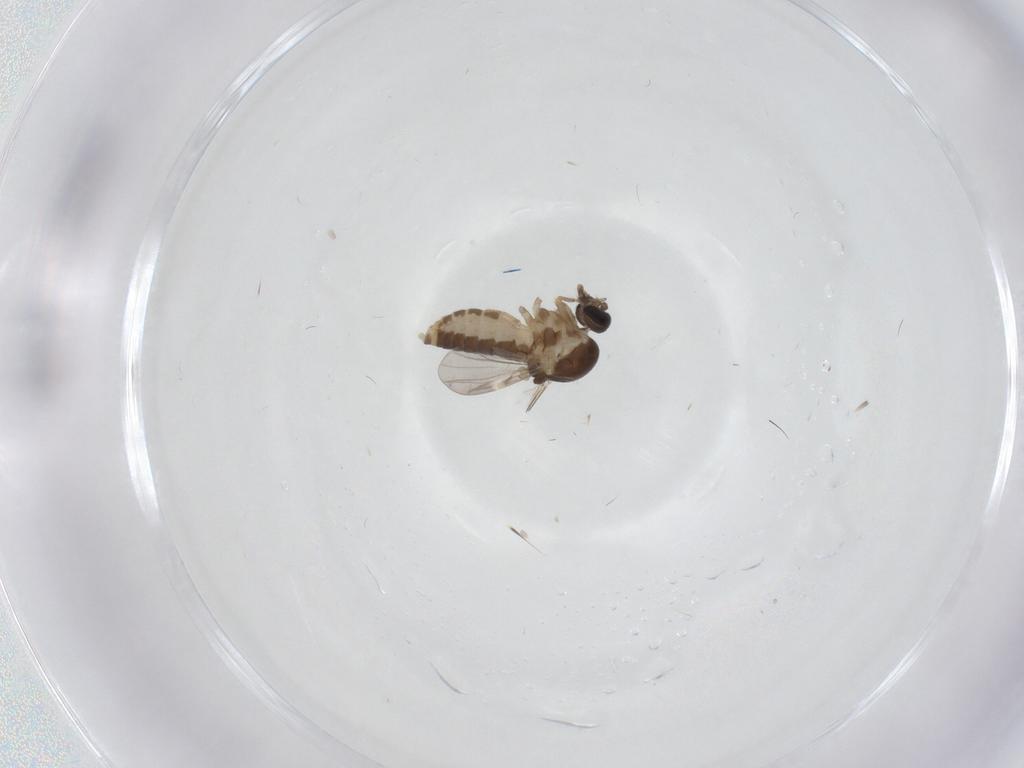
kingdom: Animalia
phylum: Arthropoda
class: Insecta
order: Diptera
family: Ceratopogonidae
